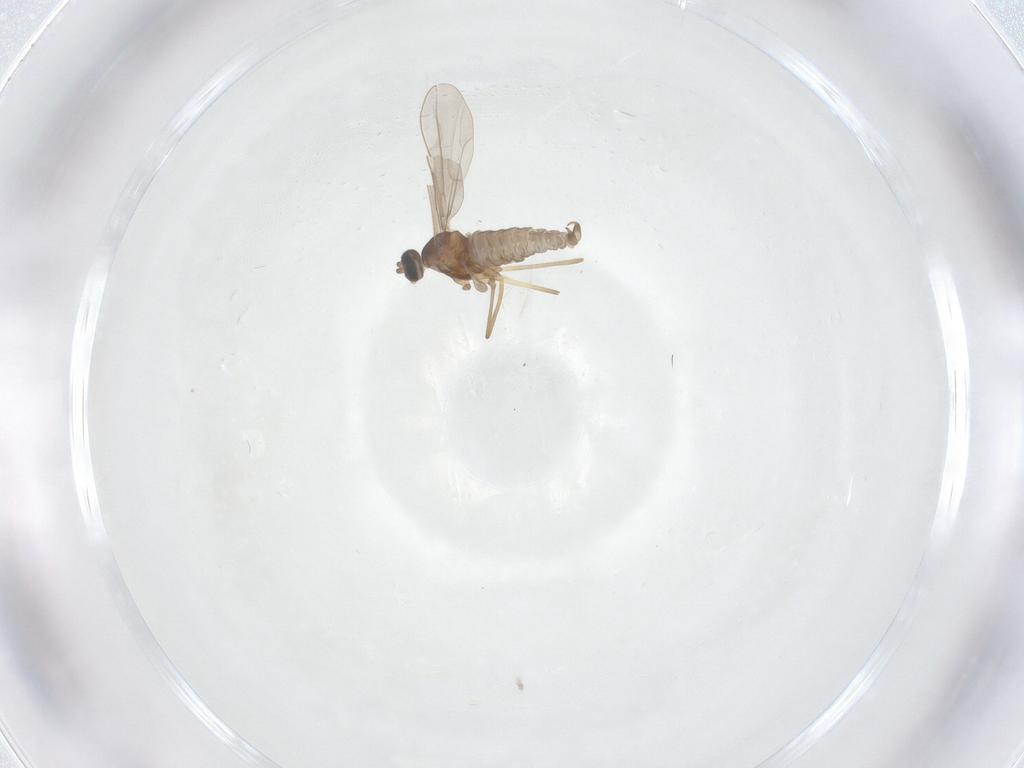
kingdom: Animalia
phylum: Arthropoda
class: Insecta
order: Diptera
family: Cecidomyiidae
